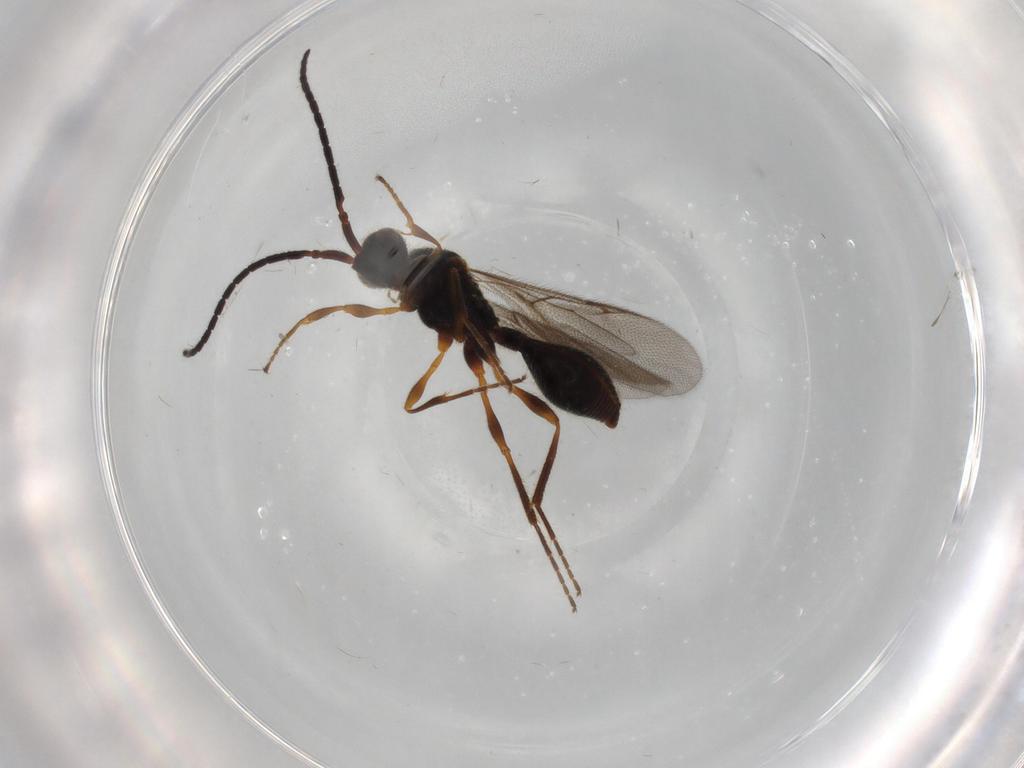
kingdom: Animalia
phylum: Arthropoda
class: Insecta
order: Hymenoptera
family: Diapriidae
